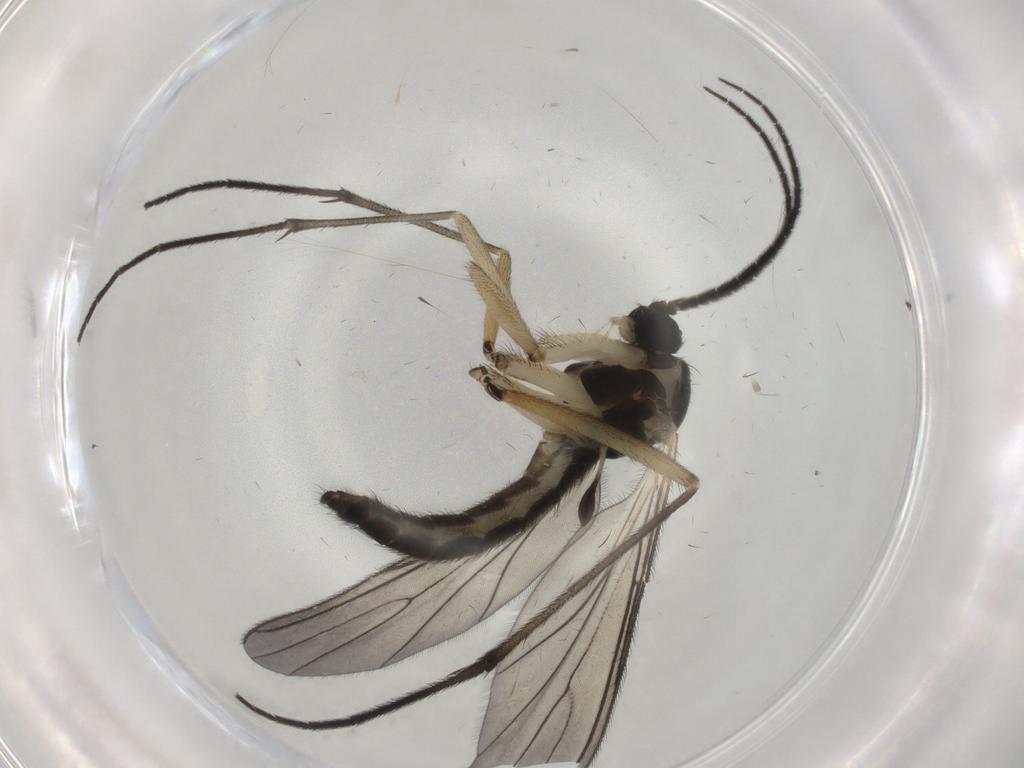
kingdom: Animalia
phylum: Arthropoda
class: Insecta
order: Diptera
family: Sciaridae
